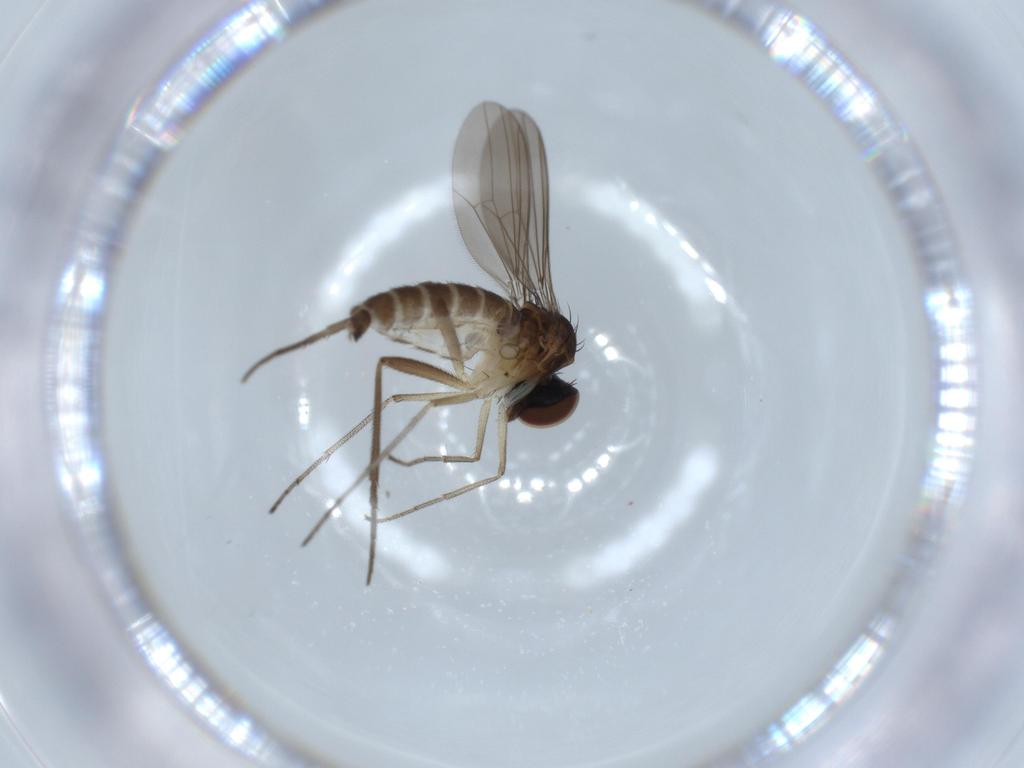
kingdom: Animalia
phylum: Arthropoda
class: Insecta
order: Diptera
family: Dolichopodidae
